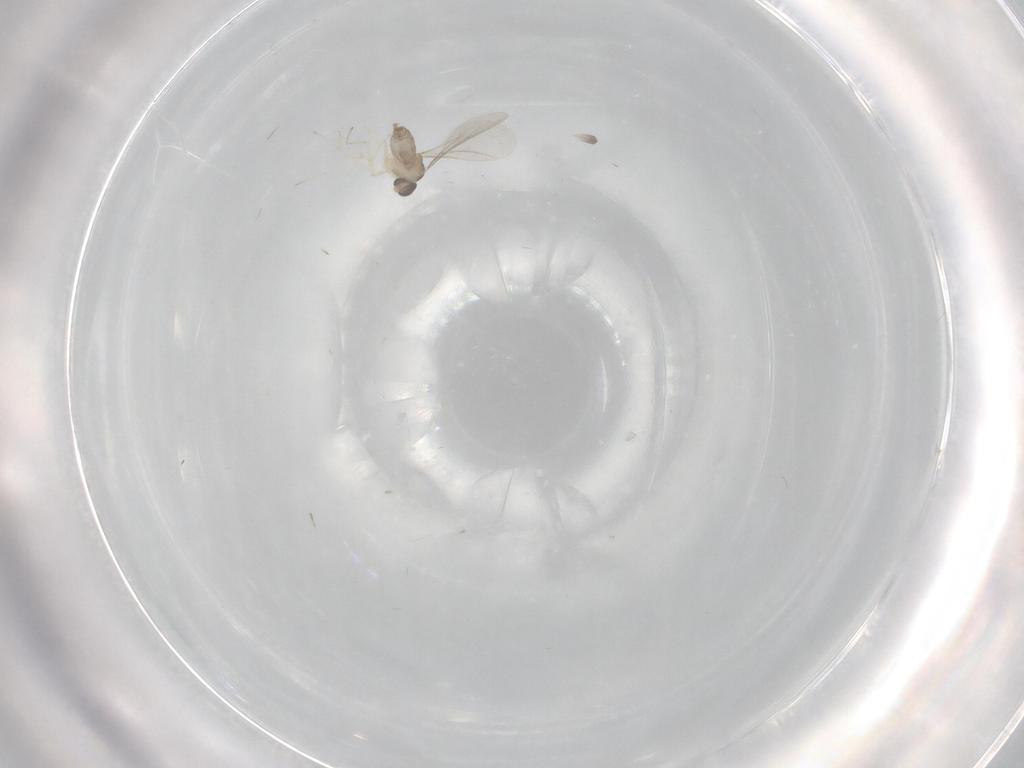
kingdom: Animalia
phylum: Arthropoda
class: Insecta
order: Diptera
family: Cecidomyiidae
